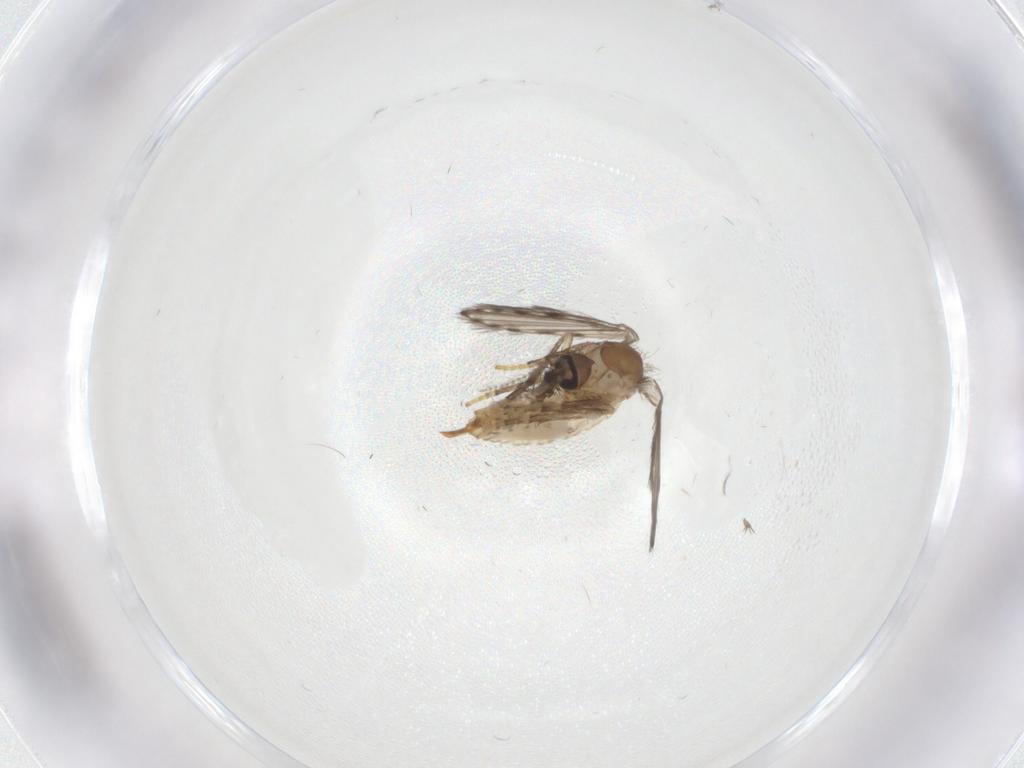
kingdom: Animalia
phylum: Arthropoda
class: Insecta
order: Diptera
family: Psychodidae
